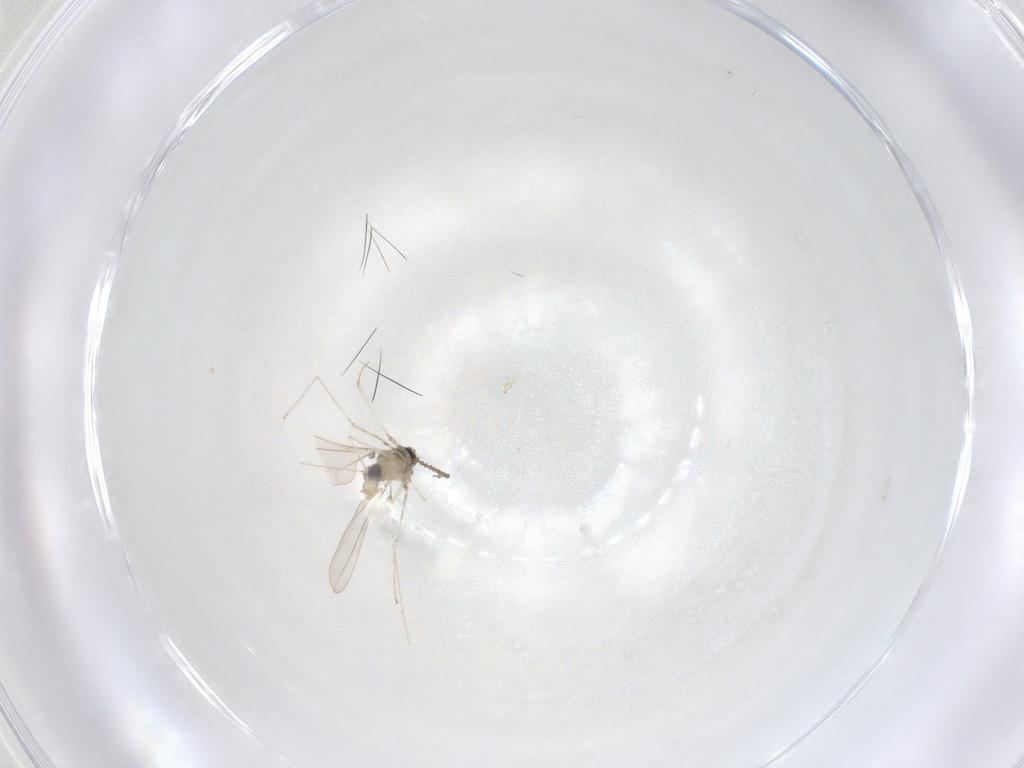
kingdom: Animalia
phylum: Arthropoda
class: Insecta
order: Diptera
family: Cecidomyiidae
